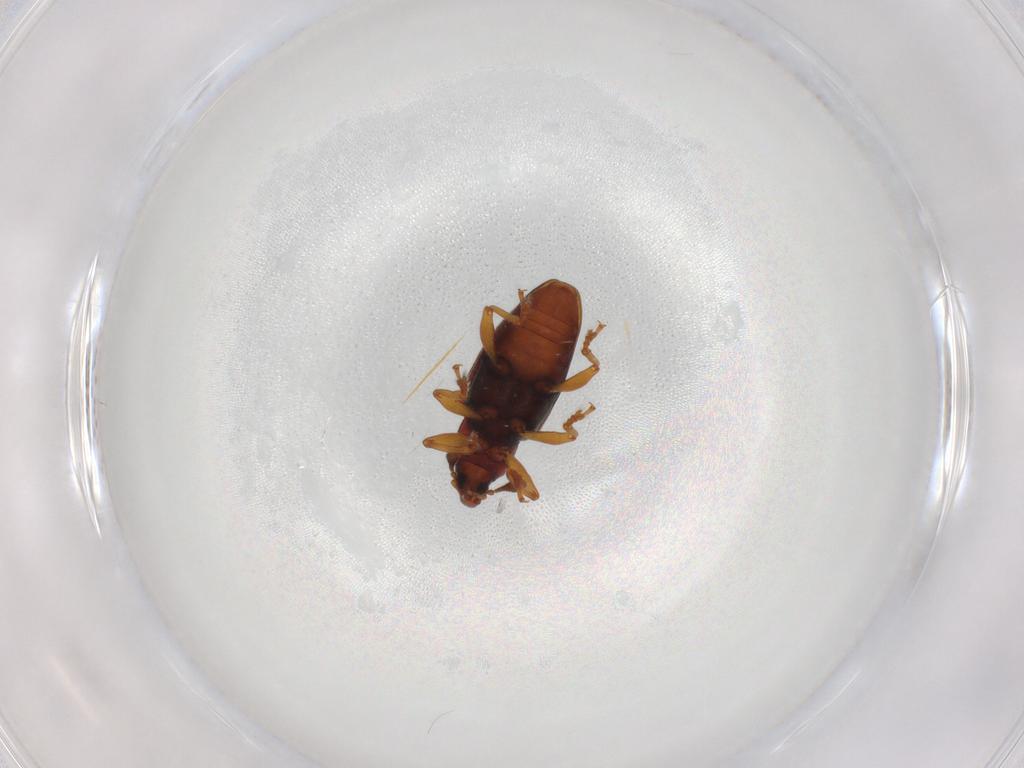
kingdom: Animalia
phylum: Arthropoda
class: Insecta
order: Coleoptera
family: Curculionidae
